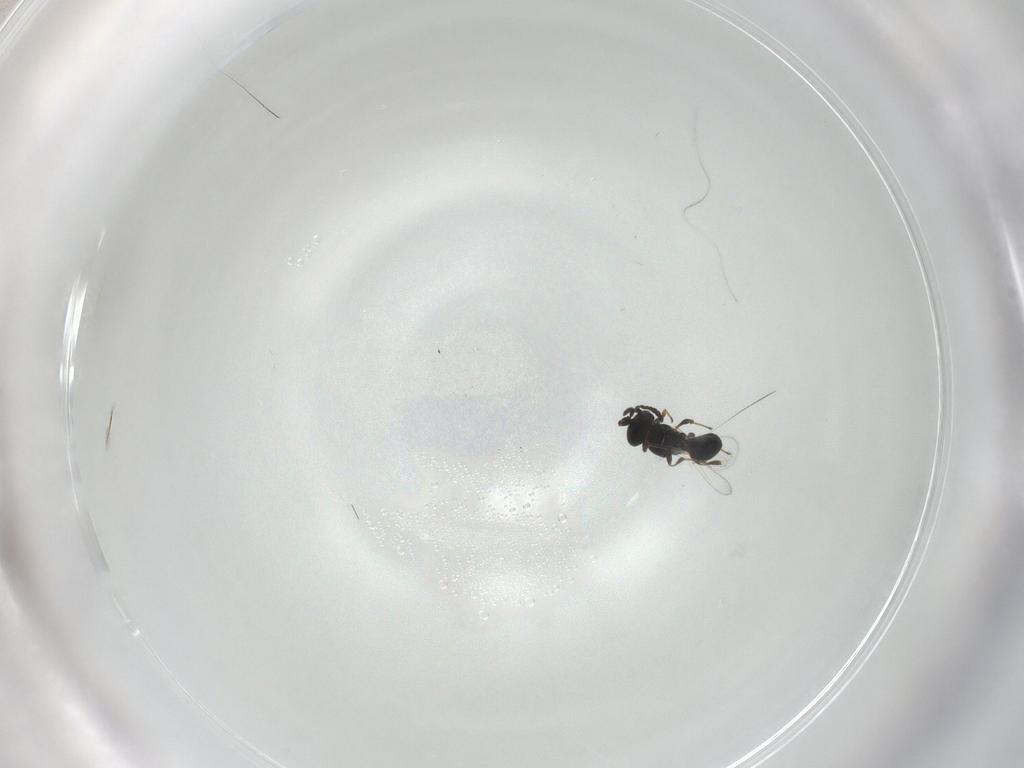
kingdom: Animalia
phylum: Arthropoda
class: Insecta
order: Hymenoptera
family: Platygastridae
